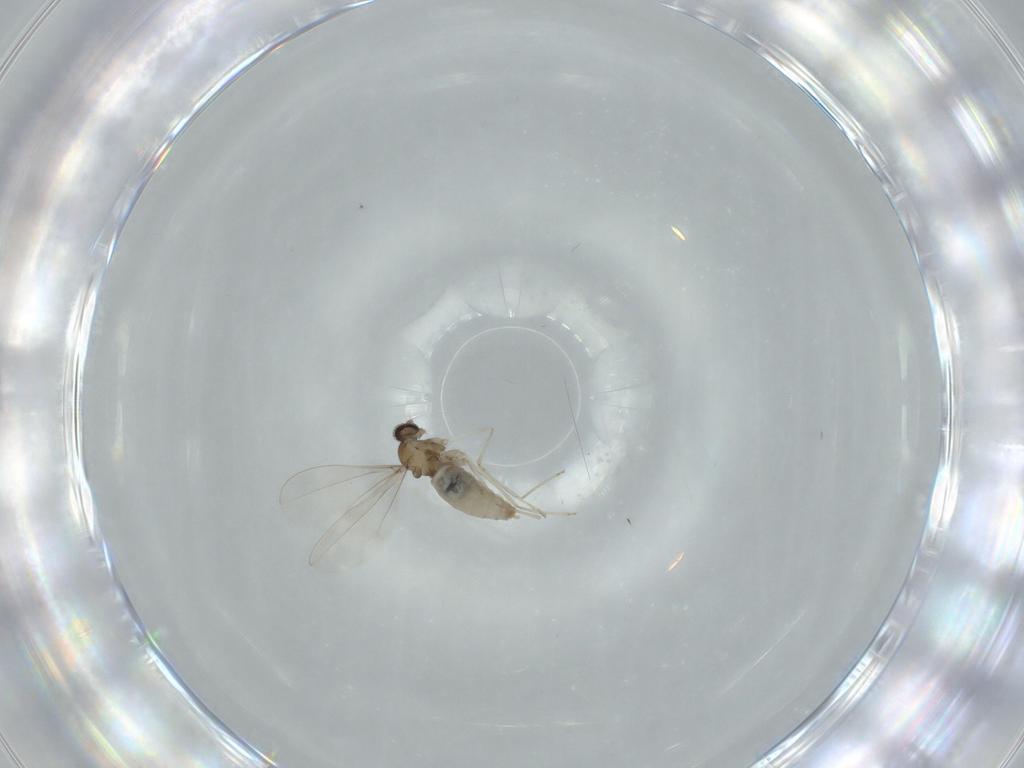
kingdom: Animalia
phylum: Arthropoda
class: Insecta
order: Diptera
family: Cecidomyiidae
